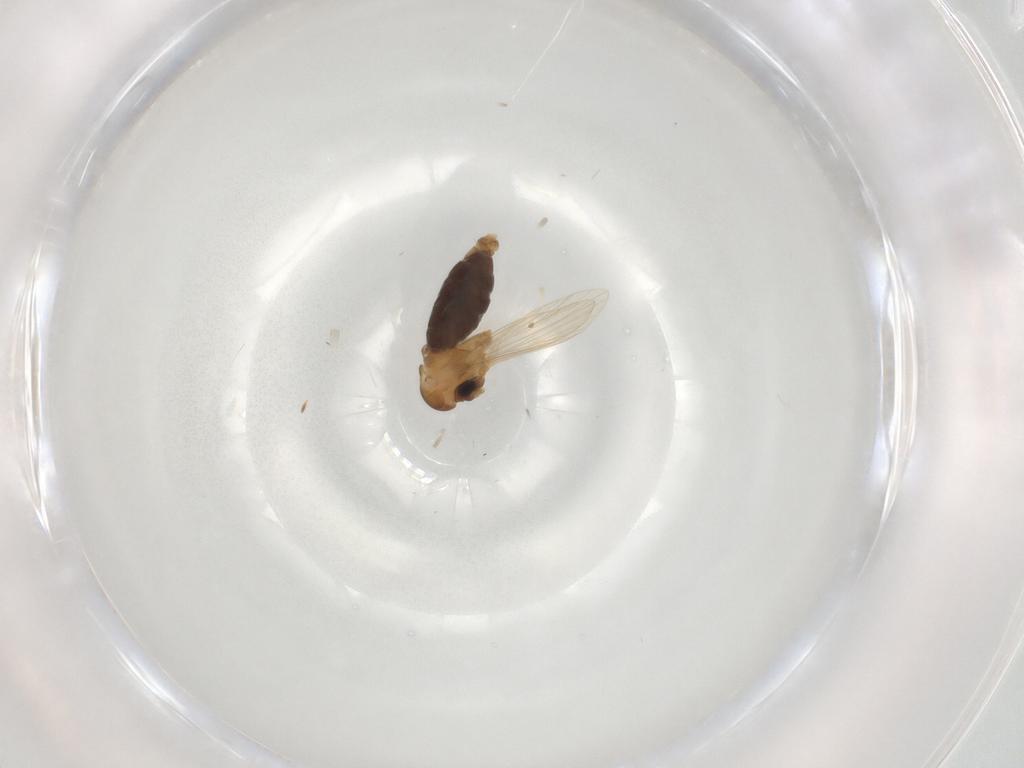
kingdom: Animalia
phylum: Arthropoda
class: Insecta
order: Diptera
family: Psychodidae
